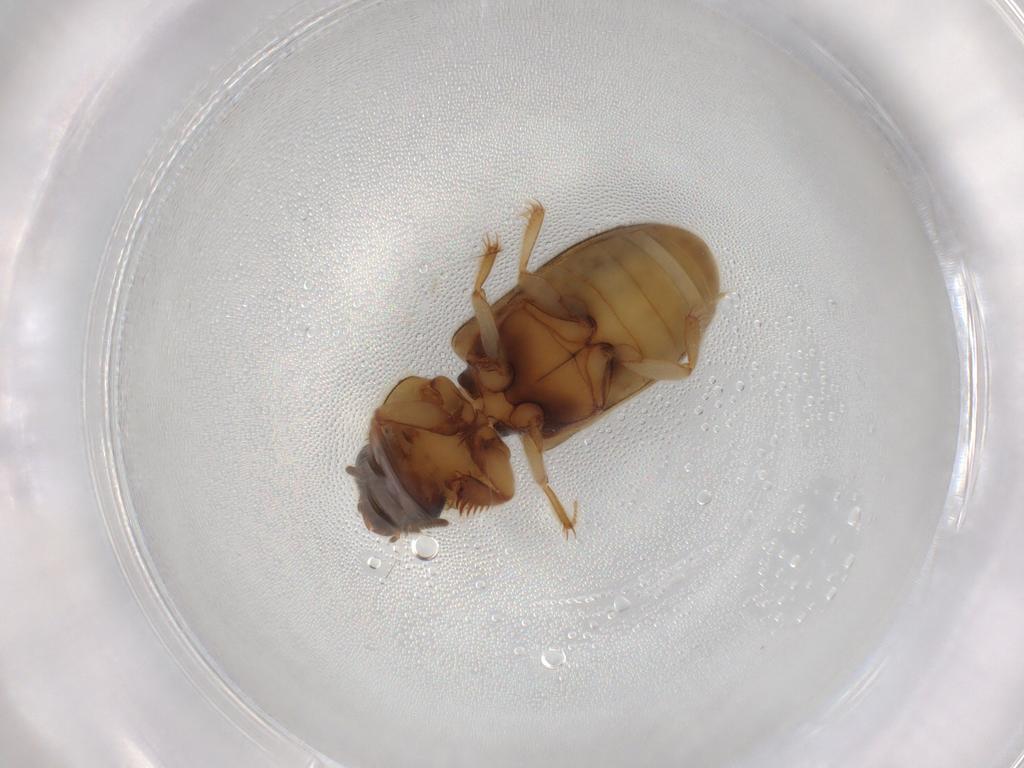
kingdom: Animalia
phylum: Arthropoda
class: Insecta
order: Coleoptera
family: Heteroceridae
